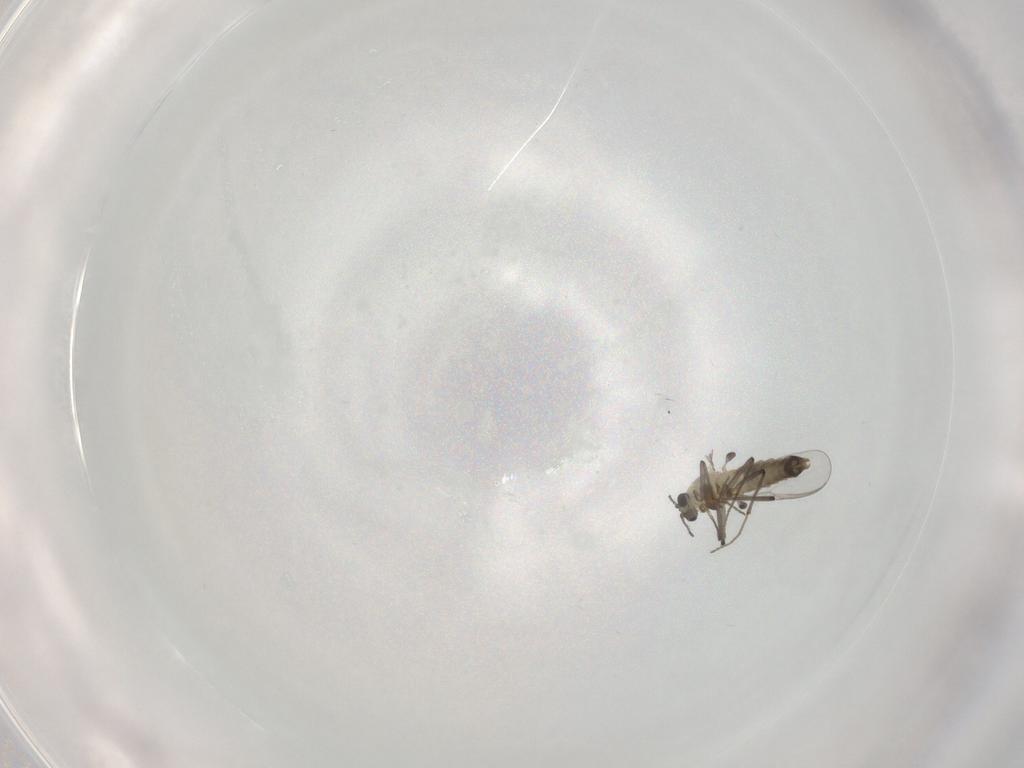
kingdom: Animalia
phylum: Arthropoda
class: Insecta
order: Diptera
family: Chironomidae
